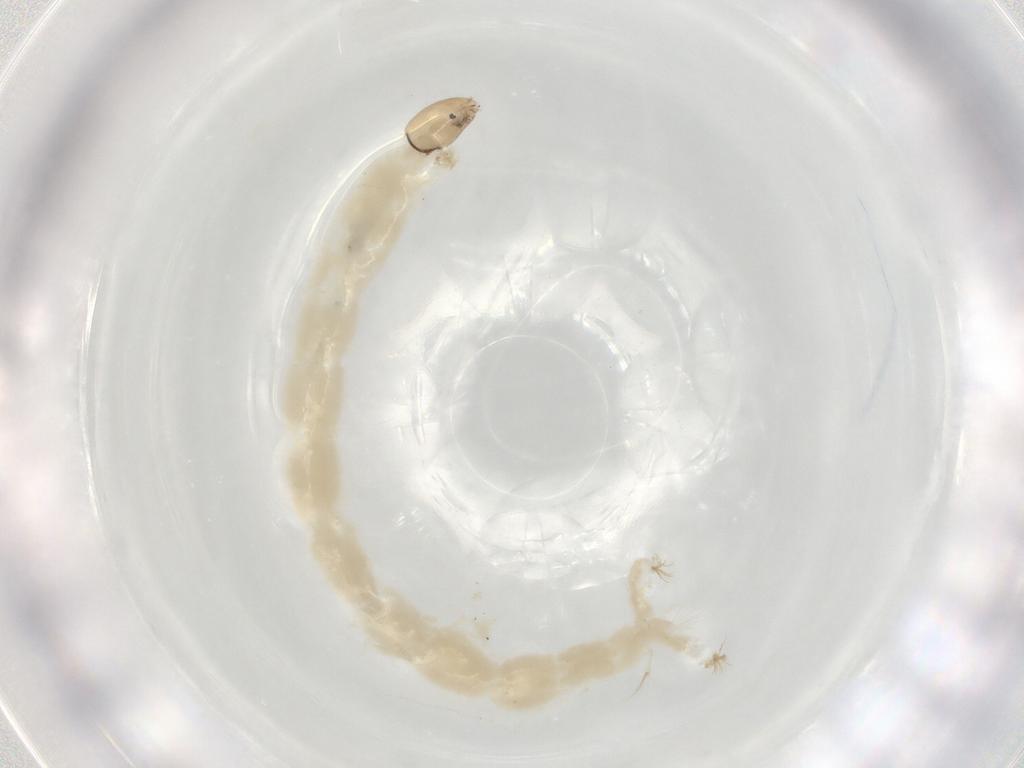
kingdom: Animalia
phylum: Arthropoda
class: Insecta
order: Diptera
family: Chironomidae
